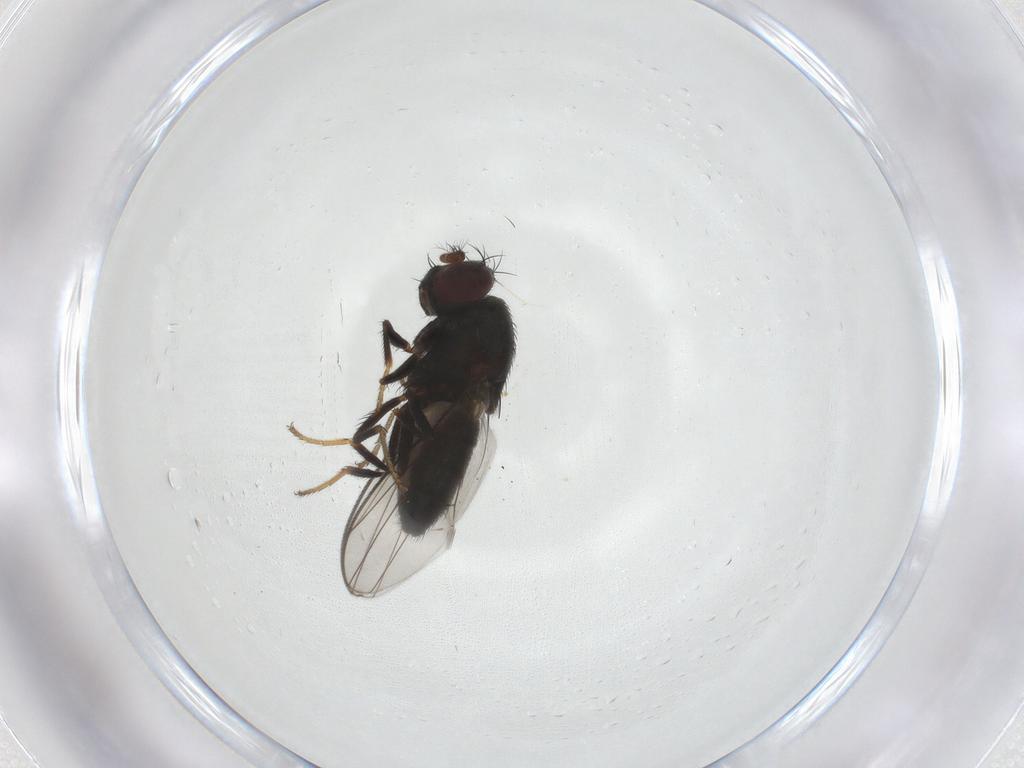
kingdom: Animalia
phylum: Arthropoda
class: Insecta
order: Diptera
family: Ephydridae
